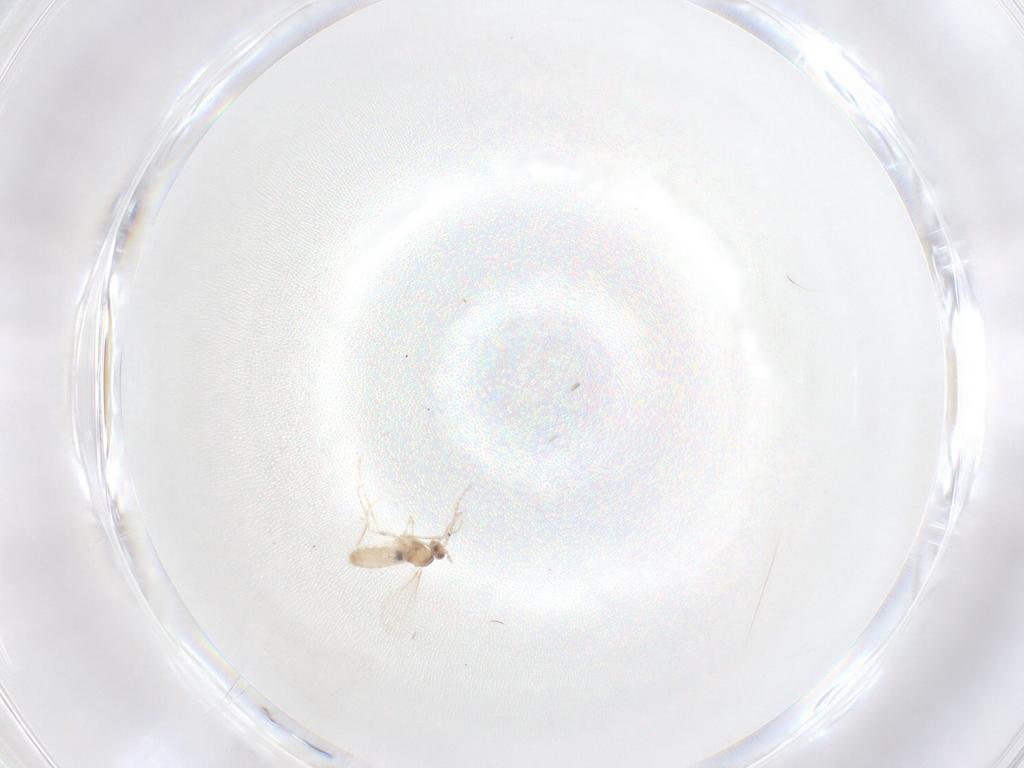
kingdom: Animalia
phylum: Arthropoda
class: Insecta
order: Diptera
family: Cecidomyiidae
